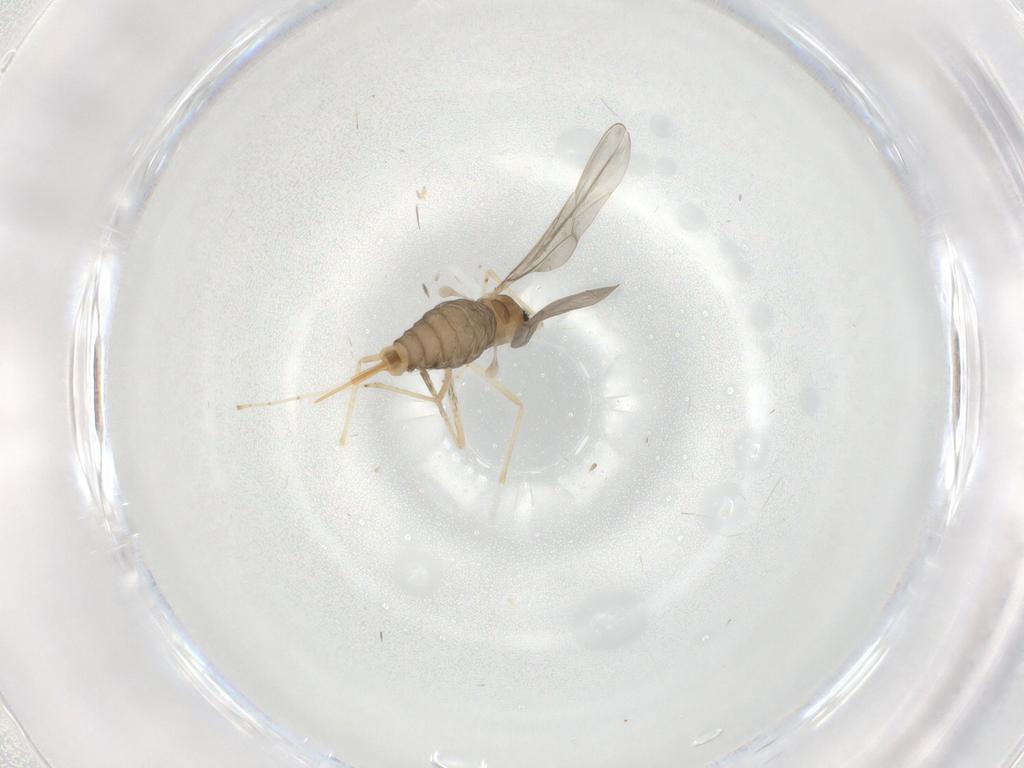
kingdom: Animalia
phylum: Arthropoda
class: Insecta
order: Diptera
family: Cecidomyiidae
